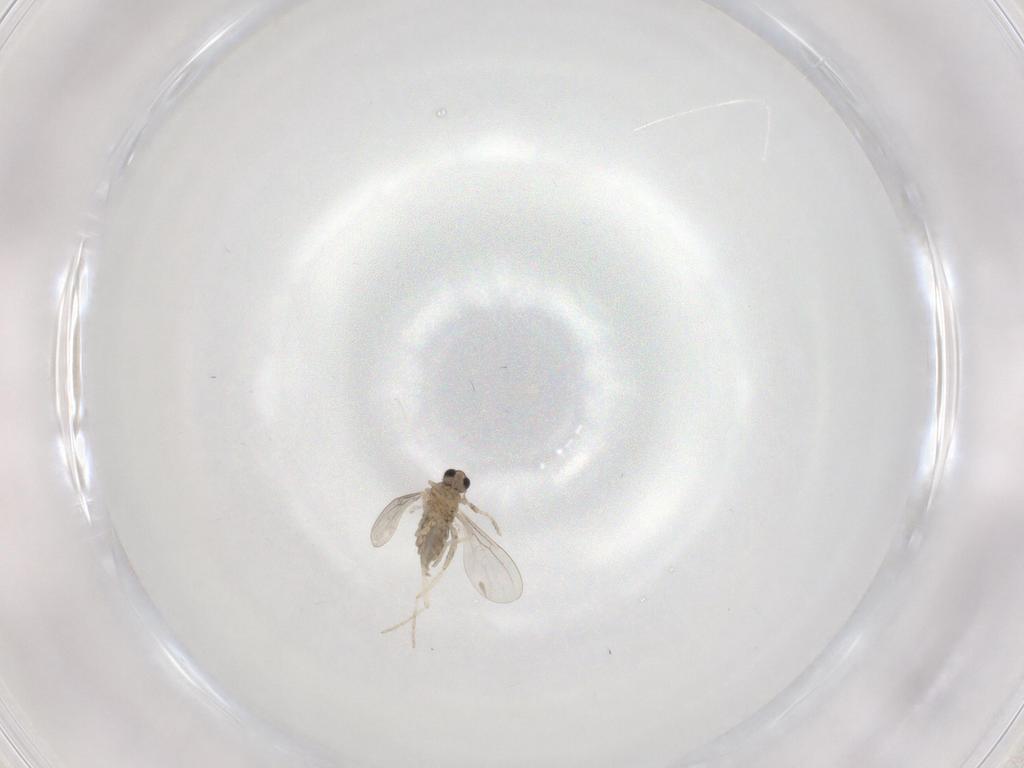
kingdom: Animalia
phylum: Arthropoda
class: Insecta
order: Diptera
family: Cecidomyiidae
